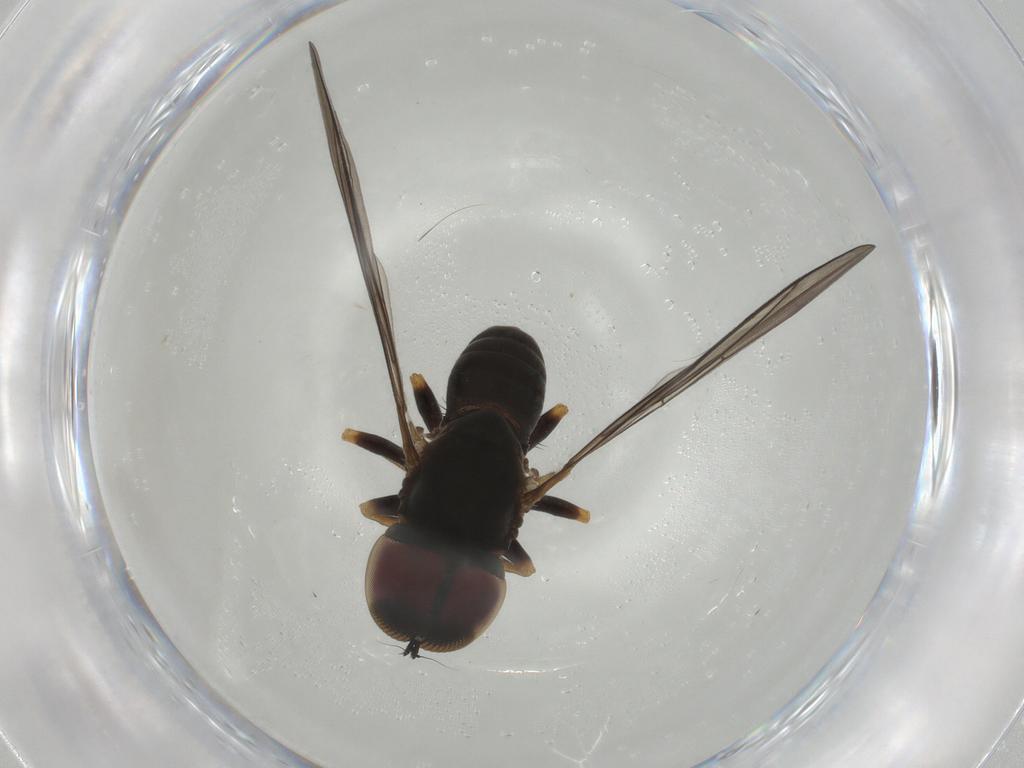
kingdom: Animalia
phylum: Arthropoda
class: Insecta
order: Diptera
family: Pipunculidae
